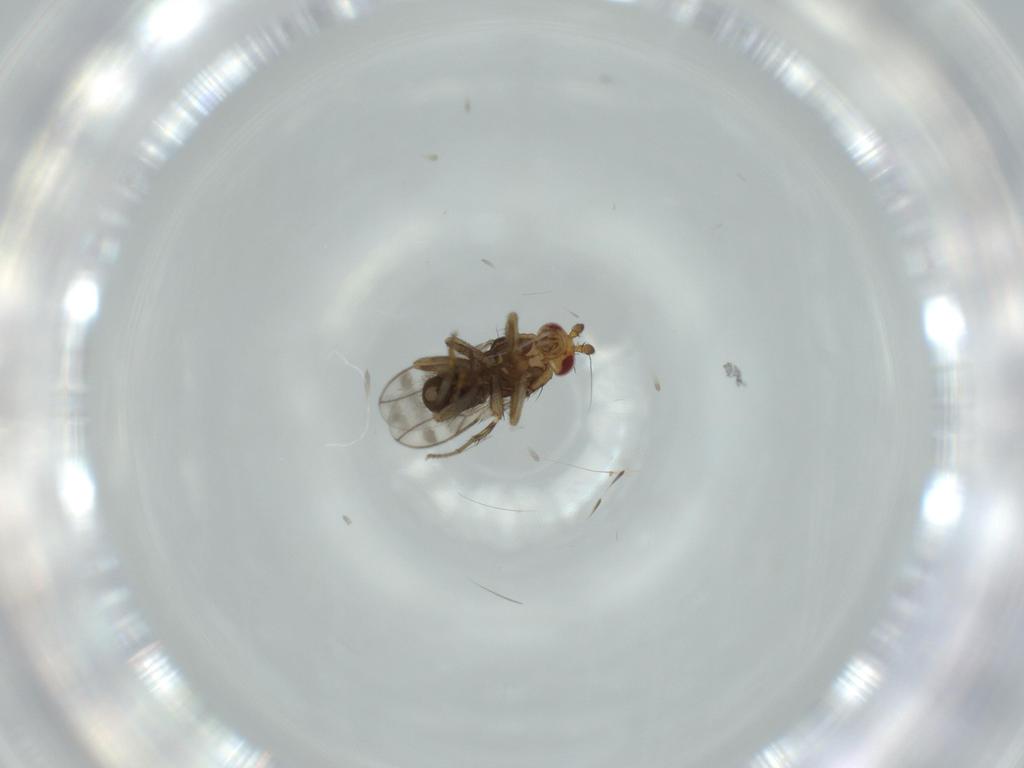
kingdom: Animalia
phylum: Arthropoda
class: Insecta
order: Diptera
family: Sphaeroceridae
